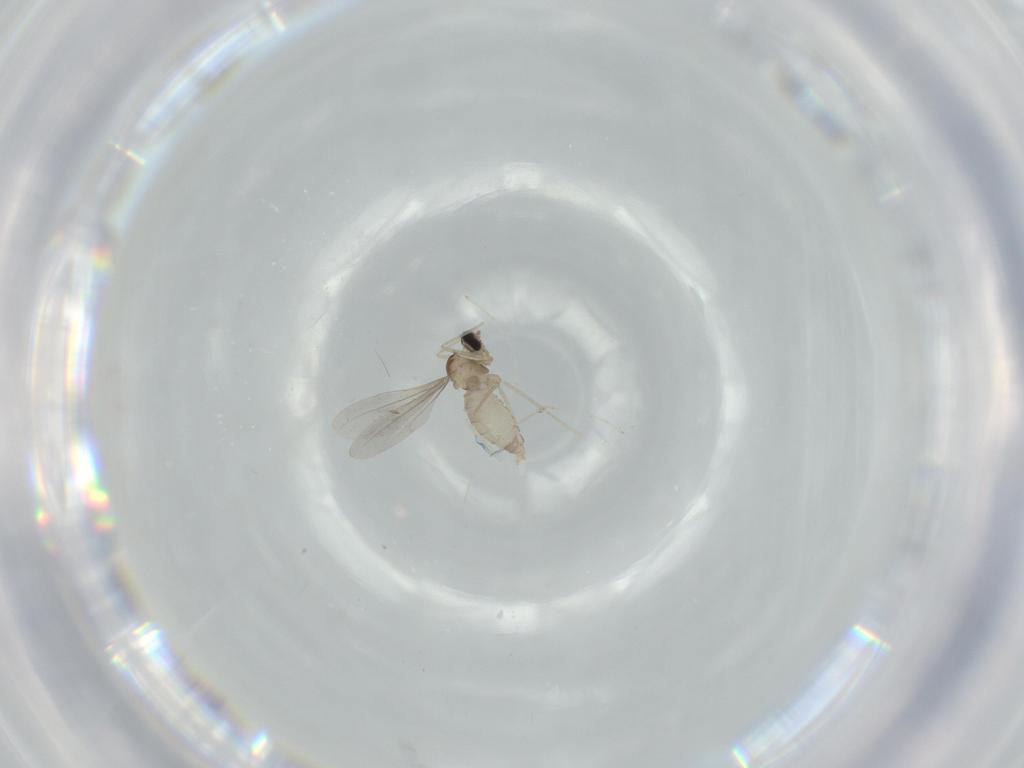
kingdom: Animalia
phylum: Arthropoda
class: Insecta
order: Diptera
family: Cecidomyiidae
